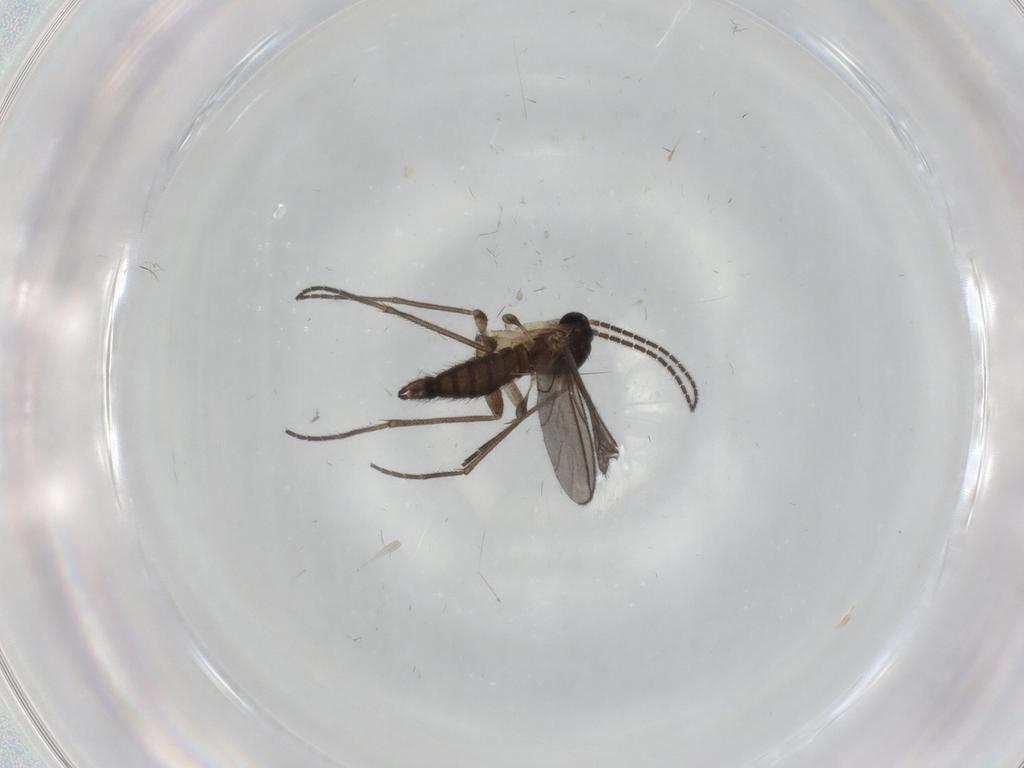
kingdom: Animalia
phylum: Arthropoda
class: Insecta
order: Diptera
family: Sciaridae
